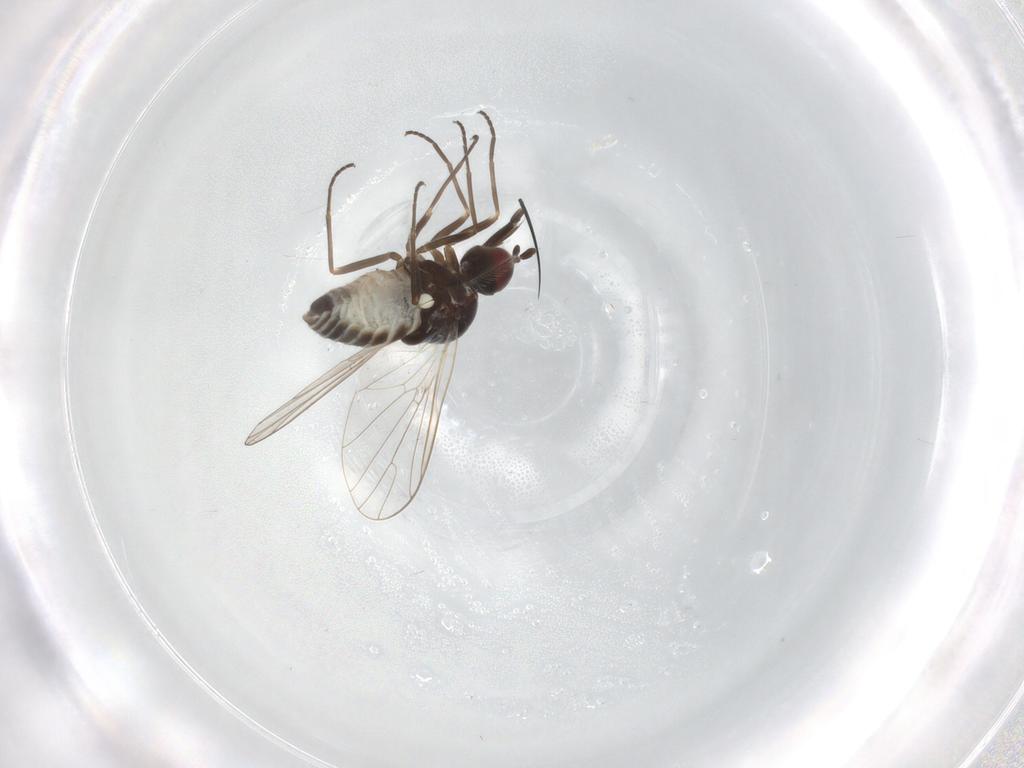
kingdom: Animalia
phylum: Arthropoda
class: Insecta
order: Diptera
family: Bombyliidae
